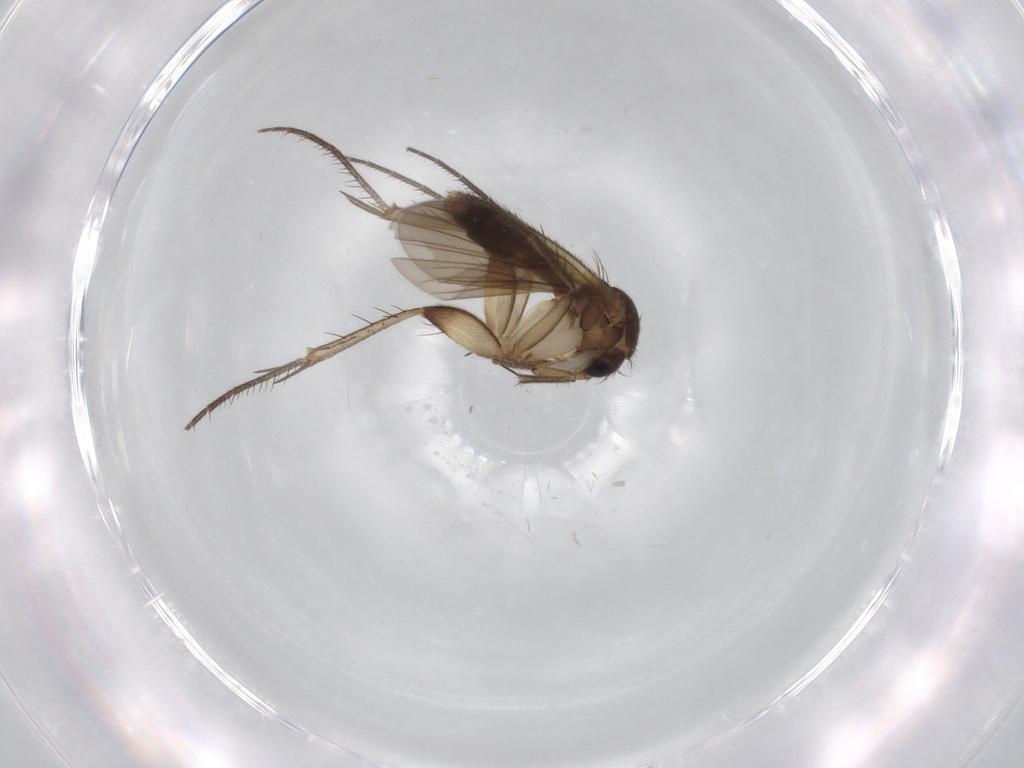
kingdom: Animalia
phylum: Arthropoda
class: Insecta
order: Diptera
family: Mycetophilidae
